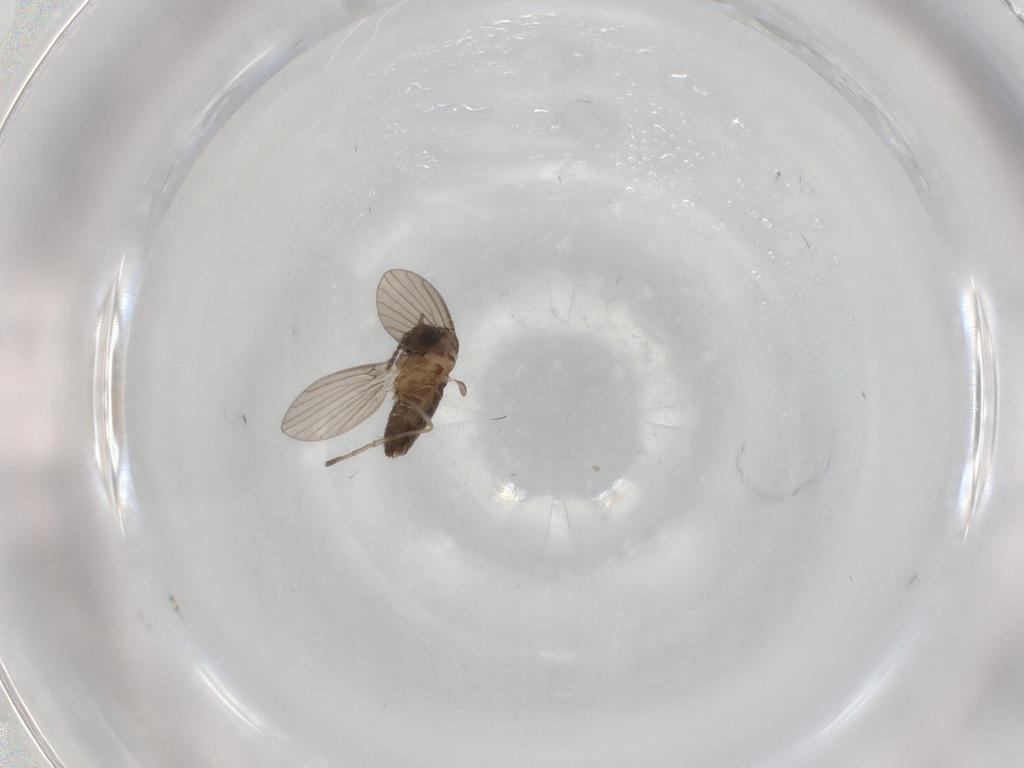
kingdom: Animalia
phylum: Arthropoda
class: Insecta
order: Diptera
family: Psychodidae
